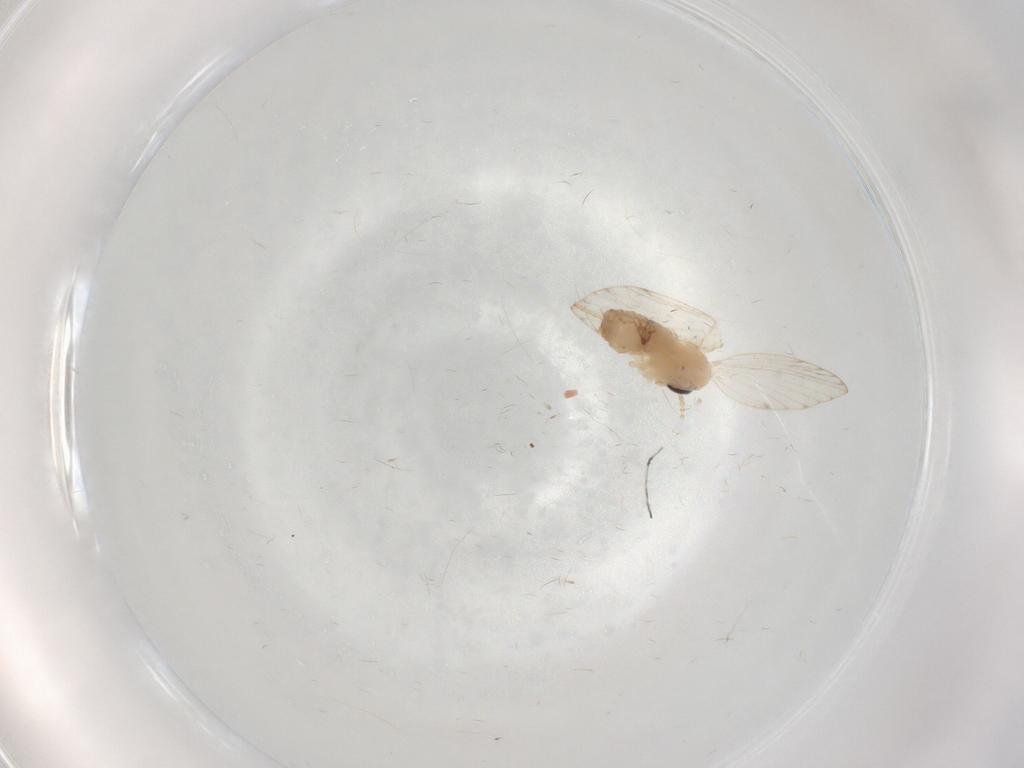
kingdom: Animalia
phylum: Arthropoda
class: Insecta
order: Diptera
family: Psychodidae
